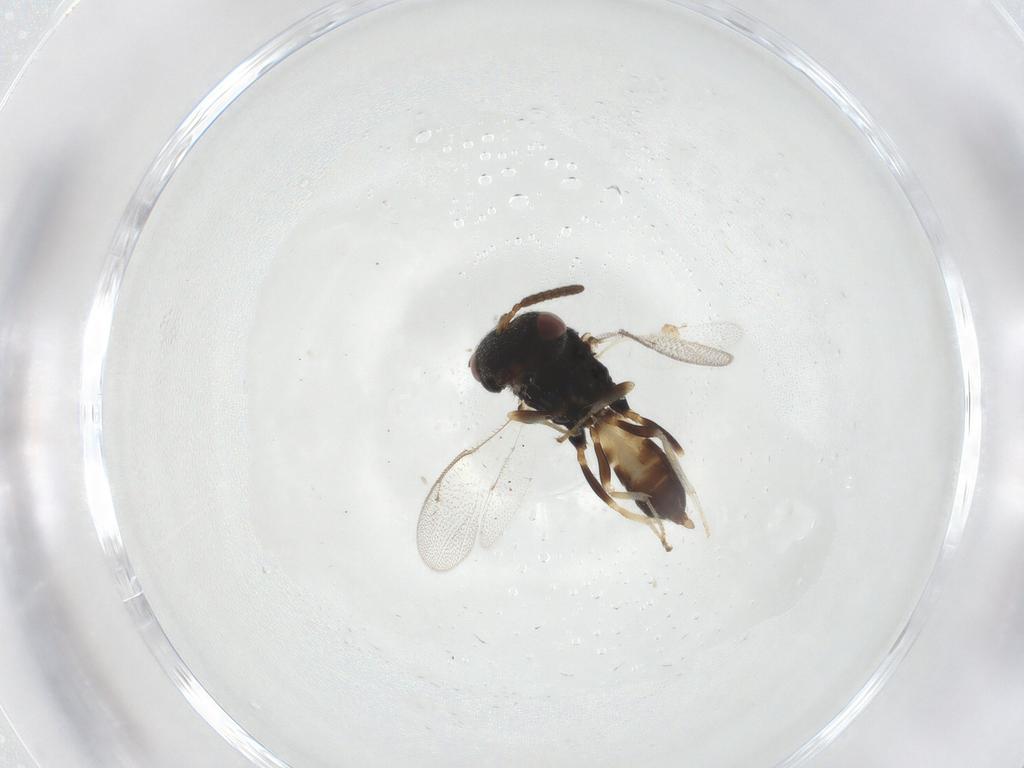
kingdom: Animalia
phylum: Arthropoda
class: Insecta
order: Hymenoptera
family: Pteromalidae
